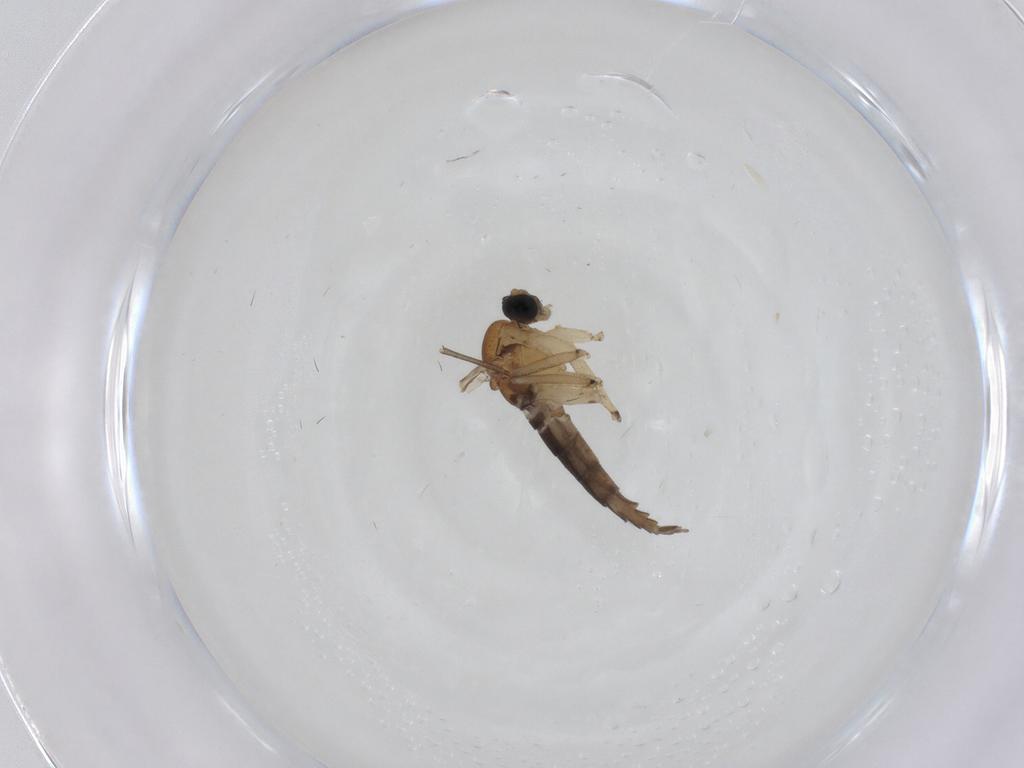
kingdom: Animalia
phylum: Arthropoda
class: Insecta
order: Diptera
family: Sciaridae
